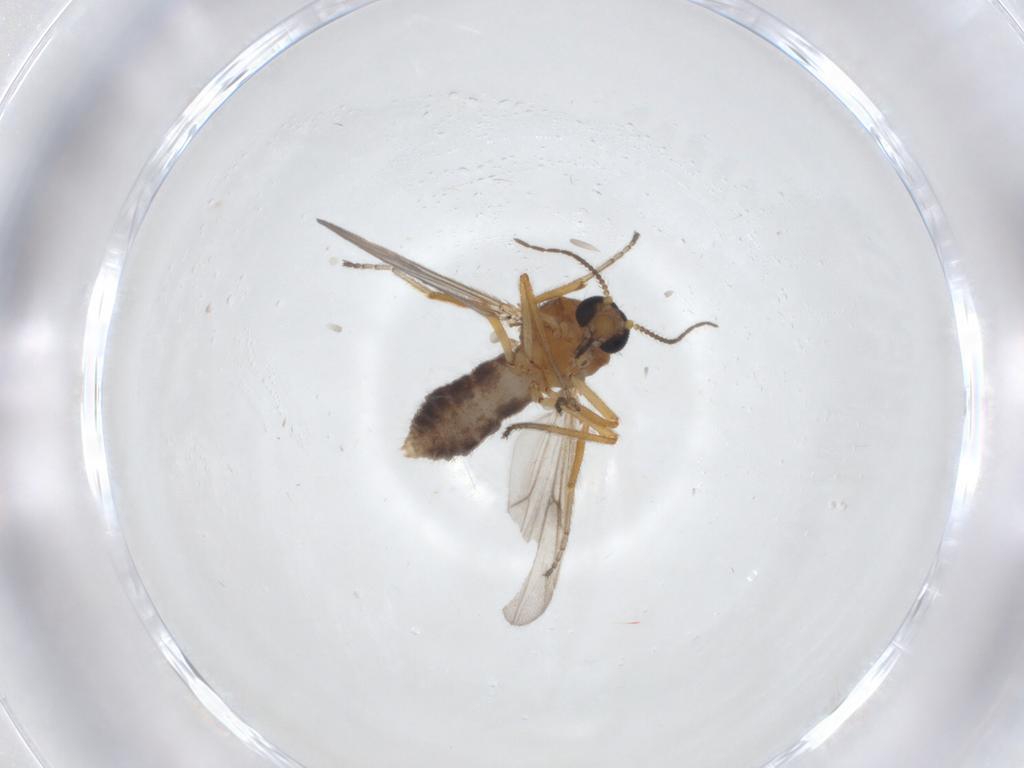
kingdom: Animalia
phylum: Arthropoda
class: Insecta
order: Diptera
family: Ceratopogonidae
